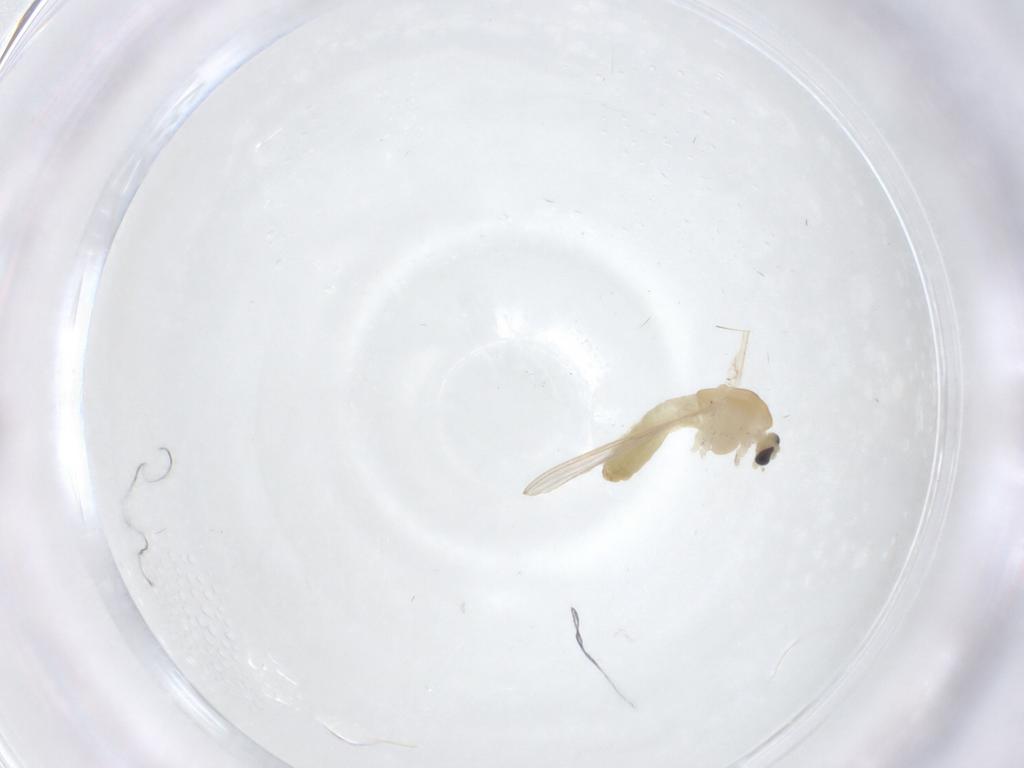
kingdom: Animalia
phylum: Arthropoda
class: Insecta
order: Diptera
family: Chironomidae
